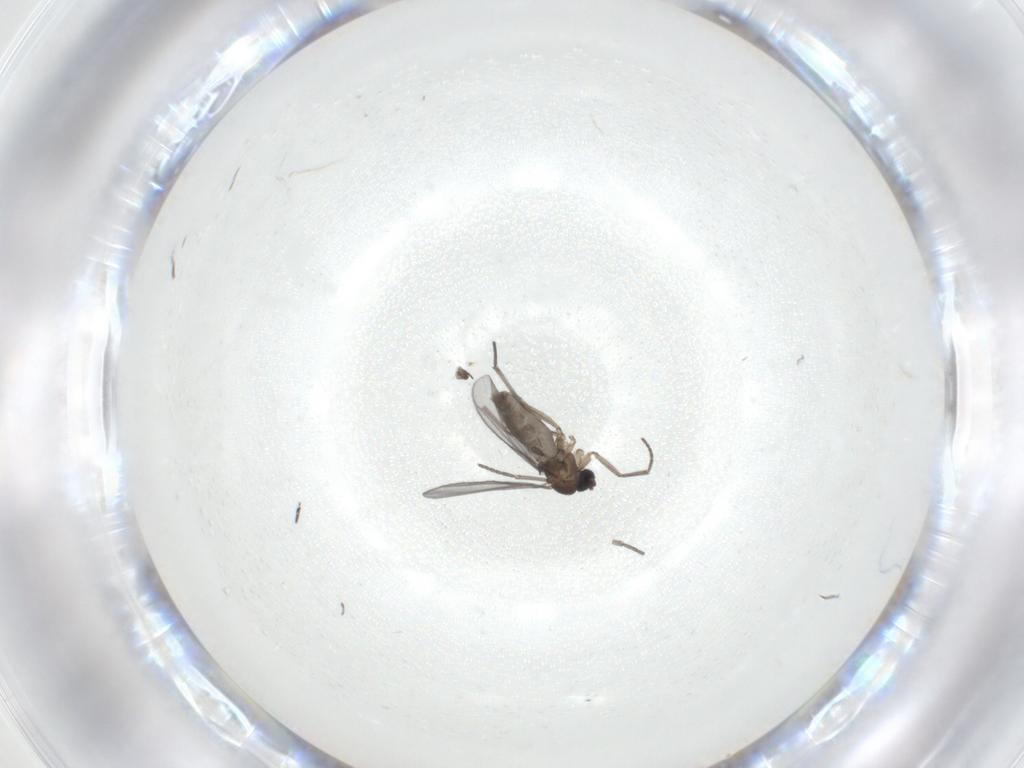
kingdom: Animalia
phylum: Arthropoda
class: Insecta
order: Diptera
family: Sciaridae
